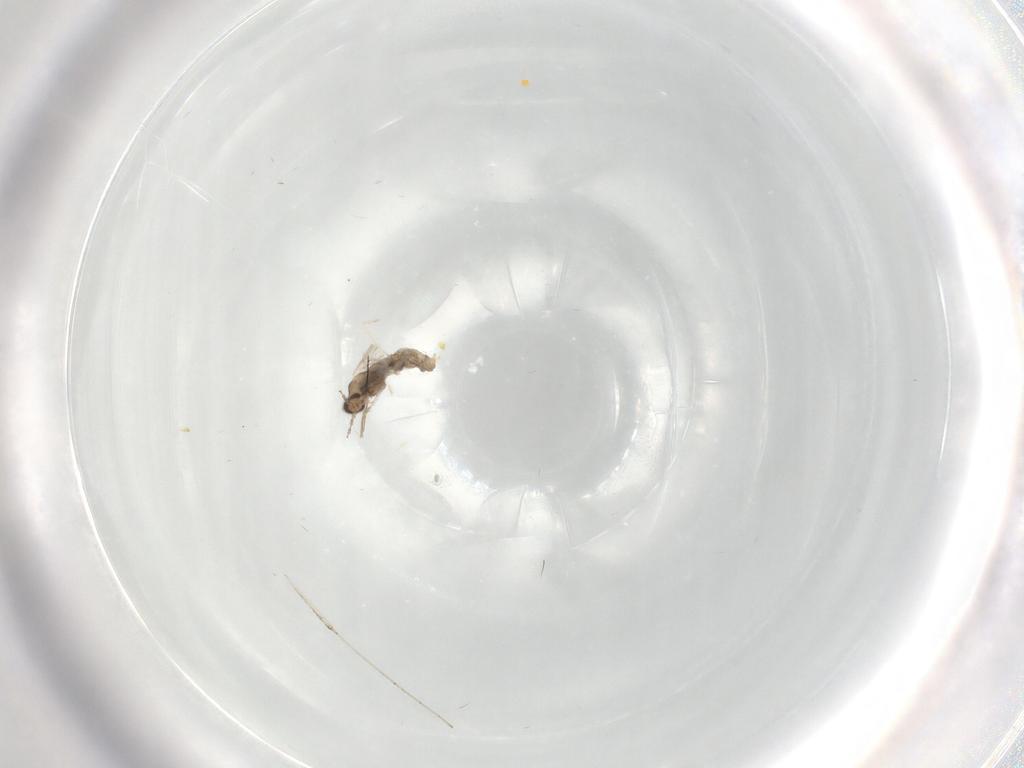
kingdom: Animalia
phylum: Arthropoda
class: Insecta
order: Diptera
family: Cecidomyiidae
